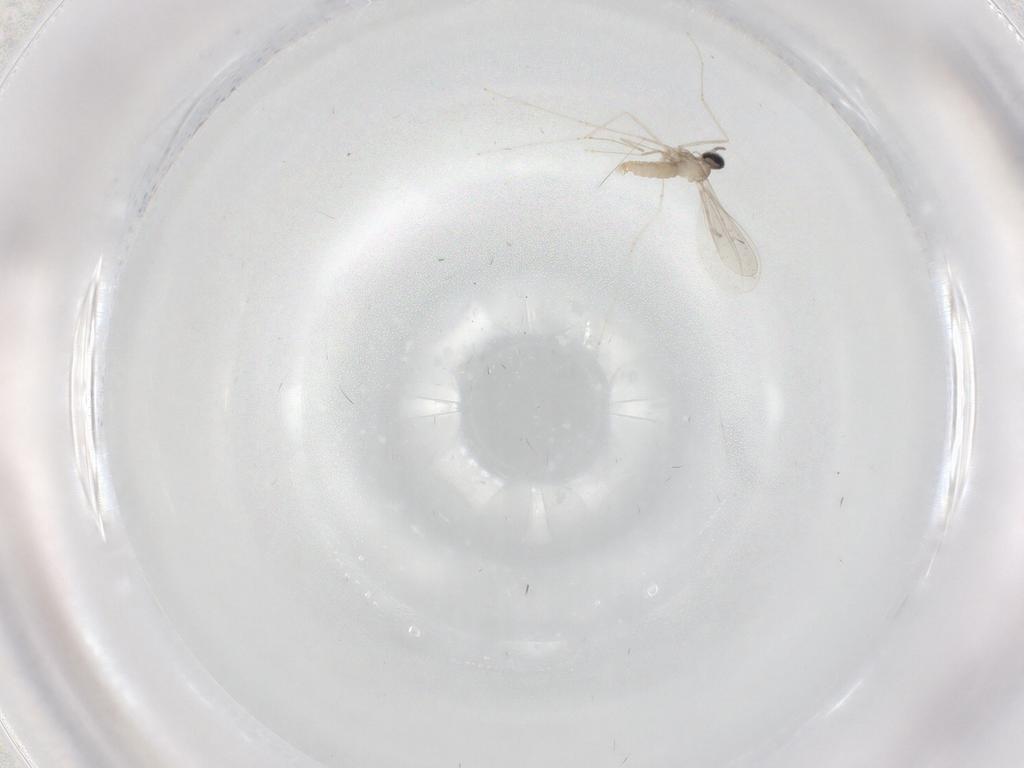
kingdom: Animalia
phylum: Arthropoda
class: Insecta
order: Diptera
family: Cecidomyiidae
